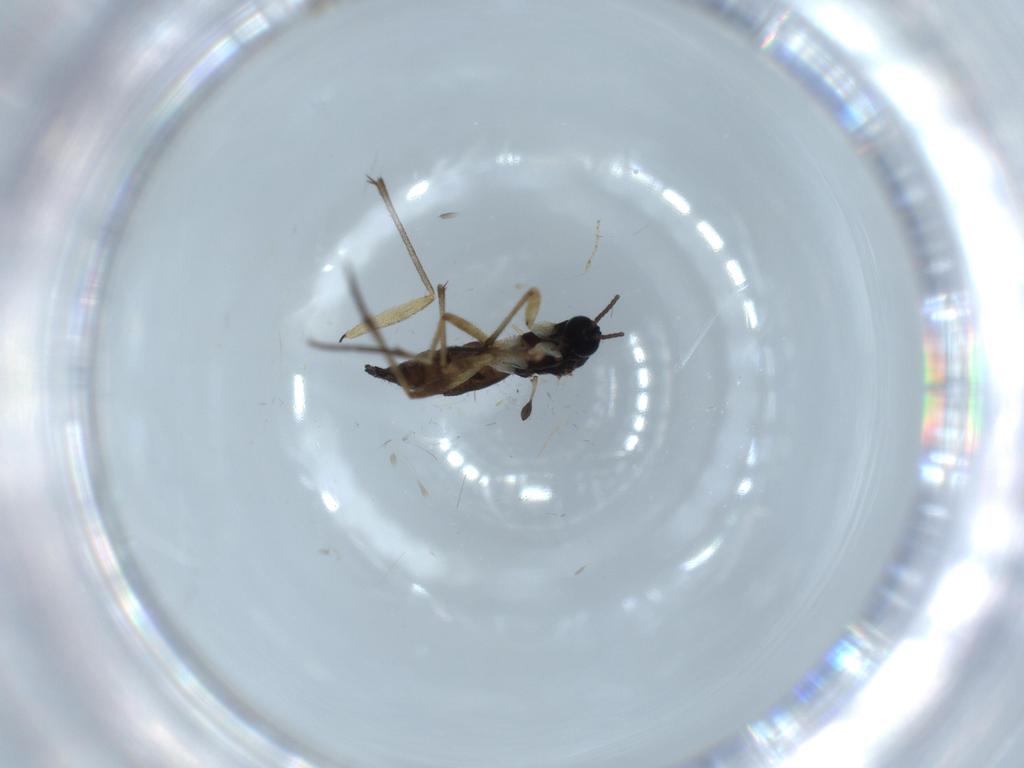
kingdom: Animalia
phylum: Arthropoda
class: Insecta
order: Diptera
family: Sciaridae
